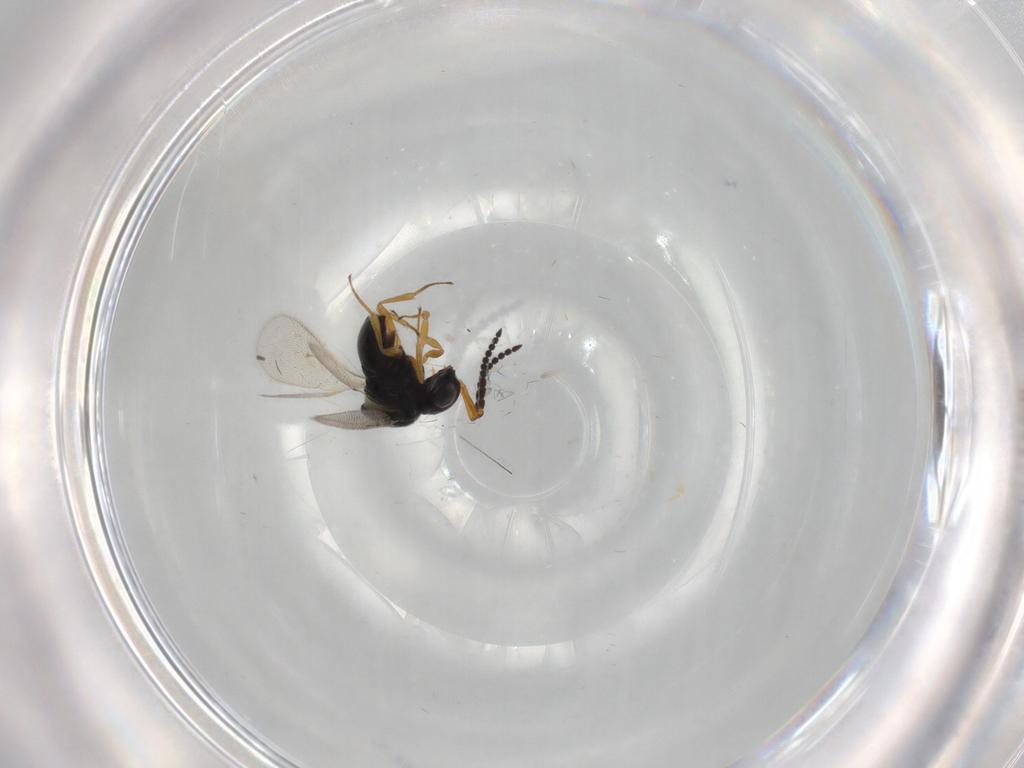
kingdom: Animalia
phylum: Arthropoda
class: Insecta
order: Hymenoptera
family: Scelionidae
